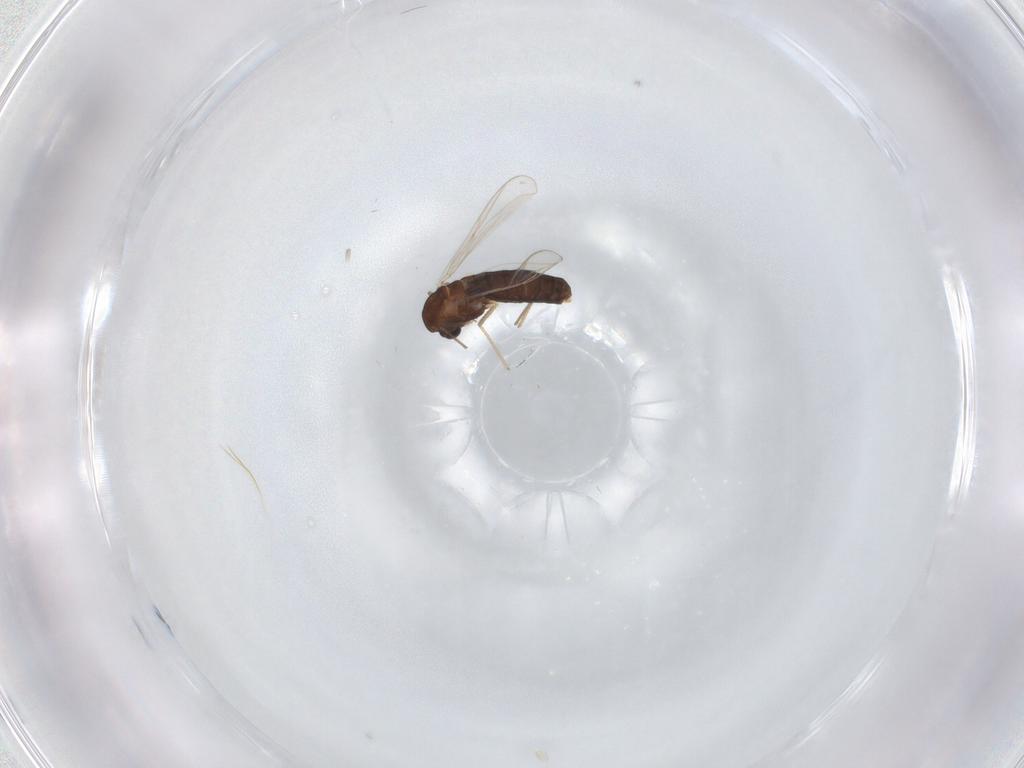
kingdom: Animalia
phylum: Arthropoda
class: Insecta
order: Diptera
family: Chironomidae
